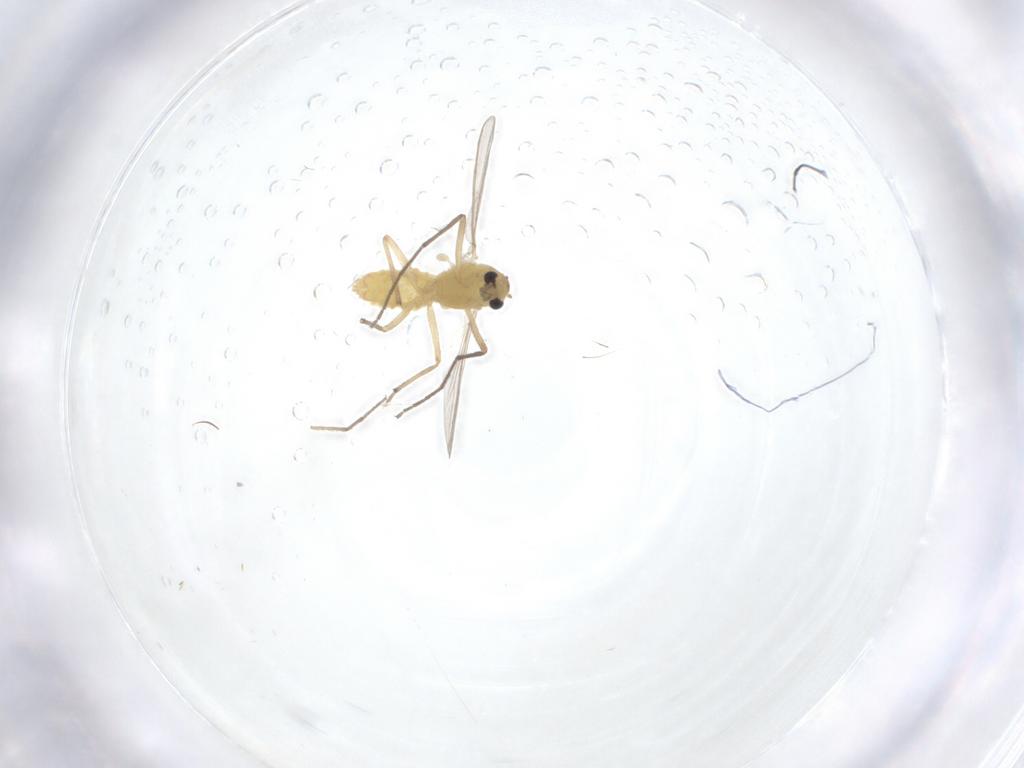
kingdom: Animalia
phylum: Arthropoda
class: Insecta
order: Diptera
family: Chironomidae
